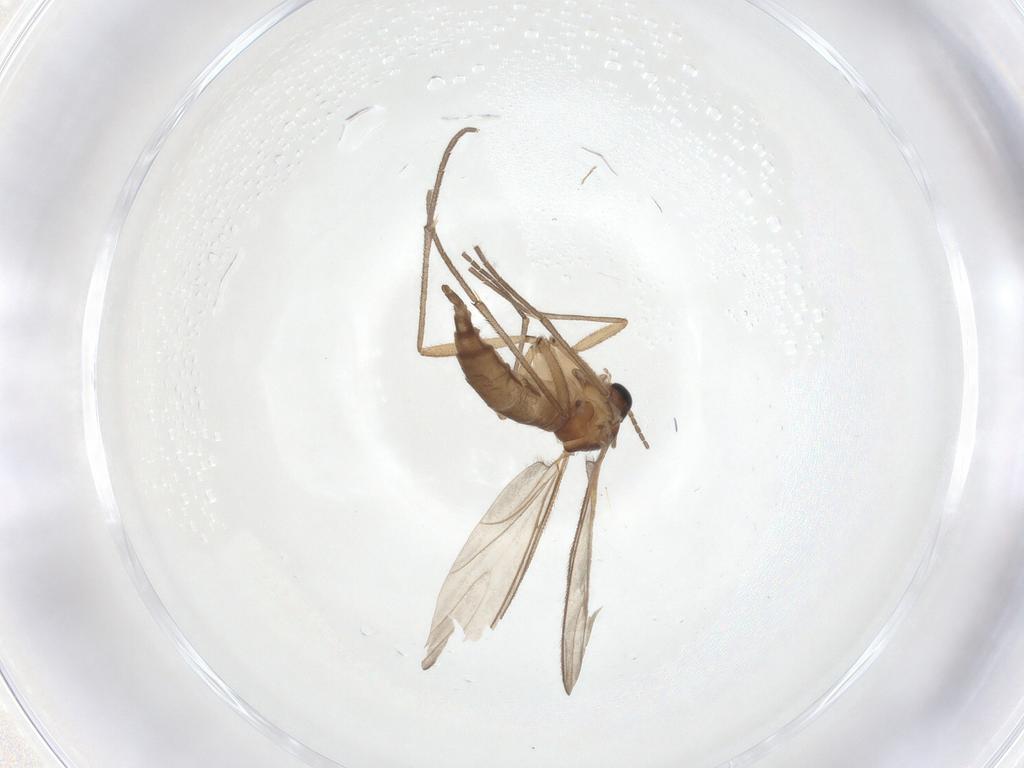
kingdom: Animalia
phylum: Arthropoda
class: Insecta
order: Diptera
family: Sciaridae
